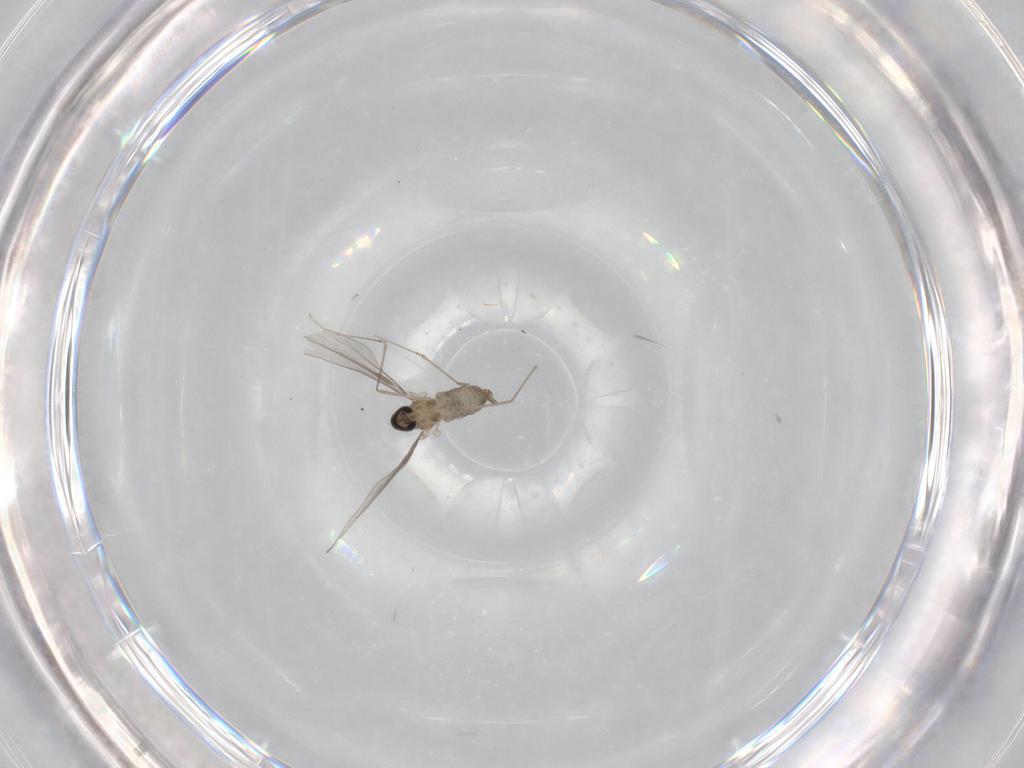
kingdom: Animalia
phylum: Arthropoda
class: Insecta
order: Diptera
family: Cecidomyiidae
